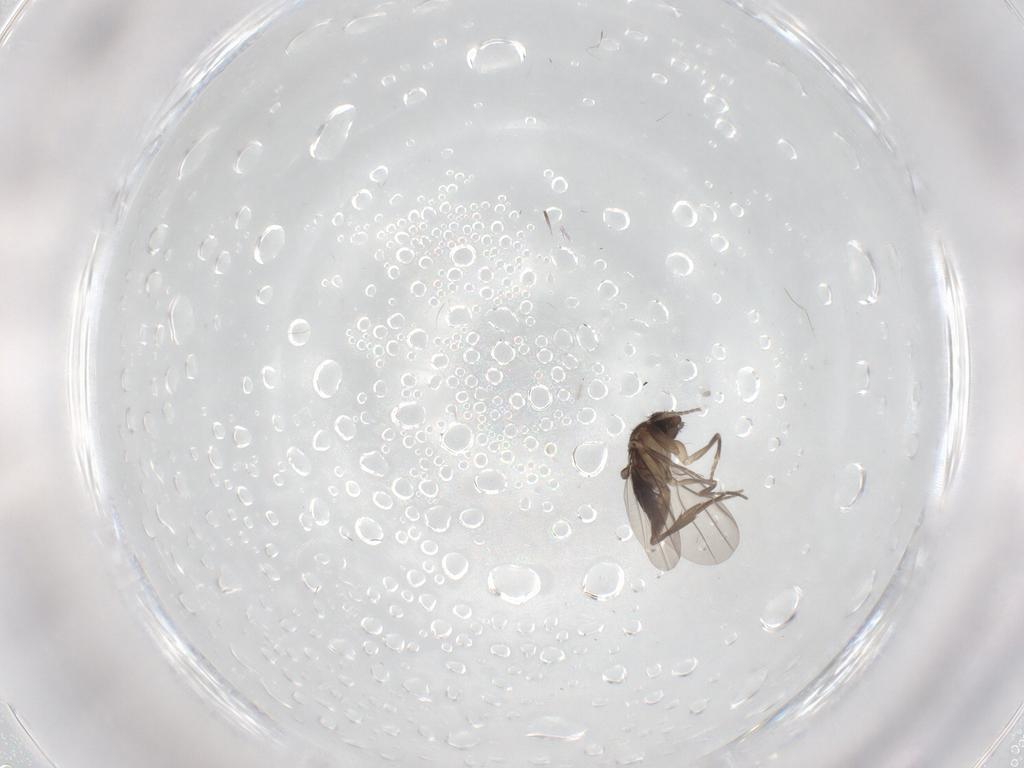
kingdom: Animalia
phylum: Arthropoda
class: Insecta
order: Diptera
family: Phoridae
